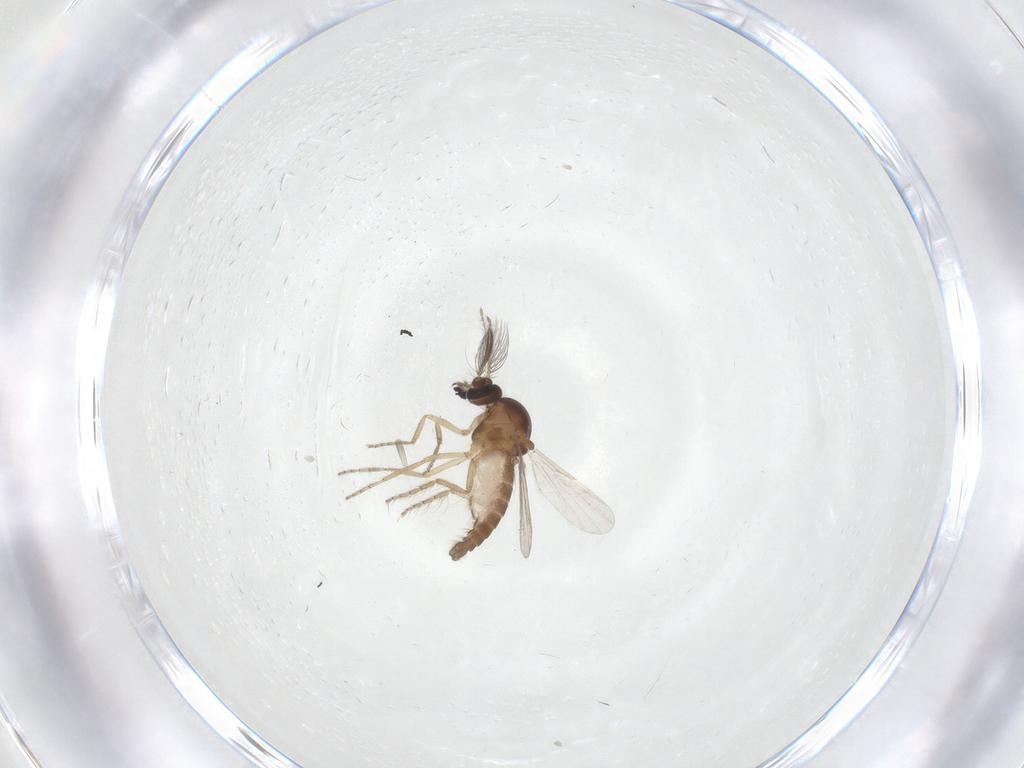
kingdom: Animalia
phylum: Arthropoda
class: Insecta
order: Diptera
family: Ceratopogonidae
